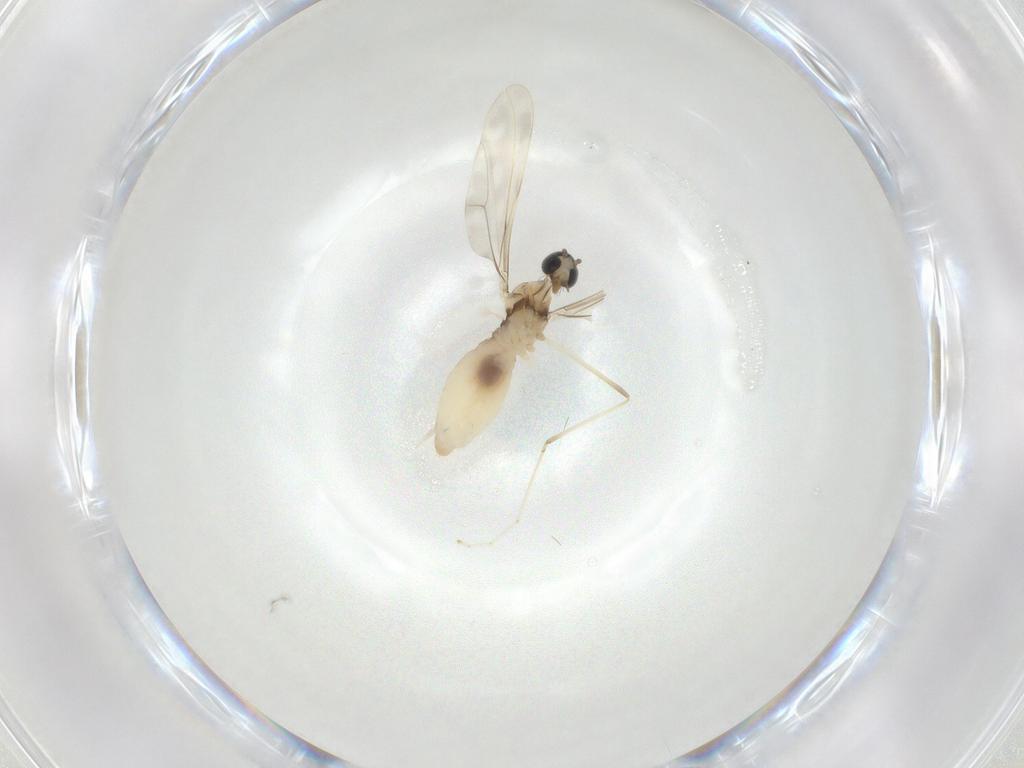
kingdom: Animalia
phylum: Arthropoda
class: Insecta
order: Diptera
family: Cecidomyiidae
